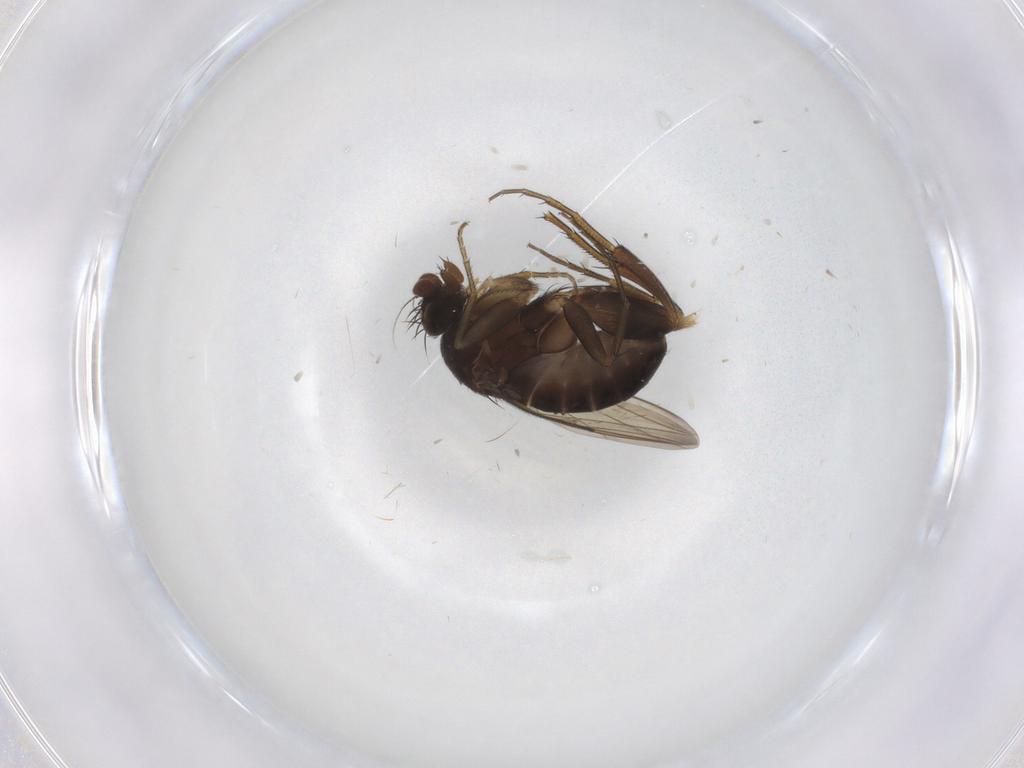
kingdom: Animalia
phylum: Arthropoda
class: Insecta
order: Diptera
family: Phoridae
